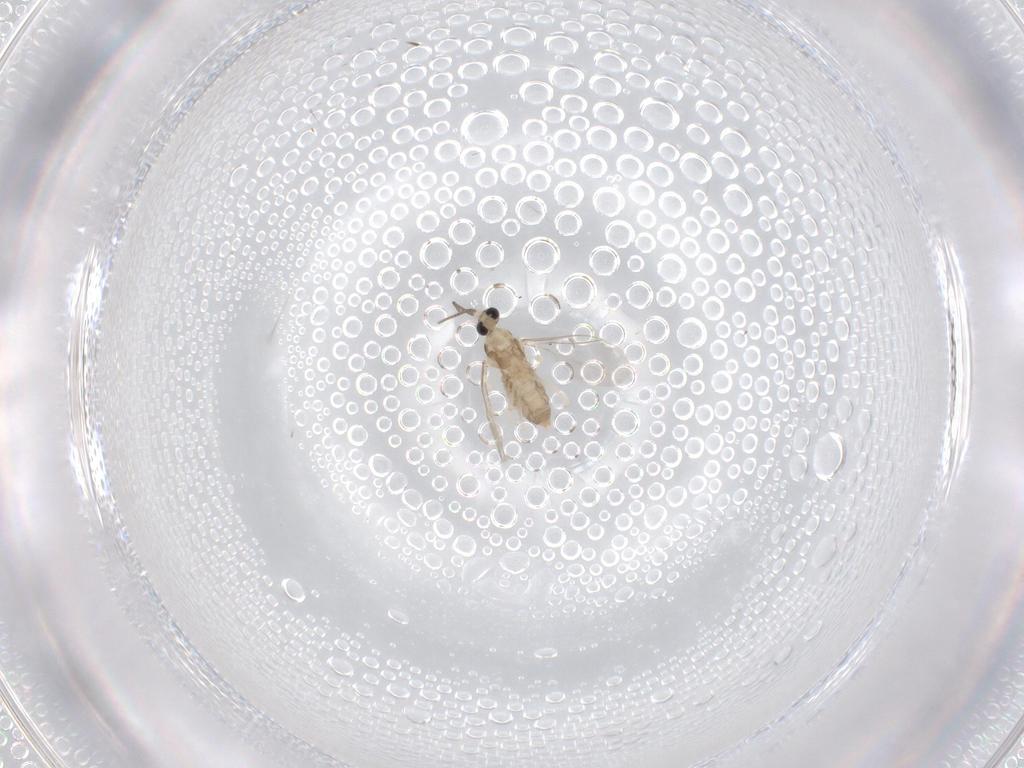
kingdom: Animalia
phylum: Arthropoda
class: Insecta
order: Diptera
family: Cecidomyiidae
